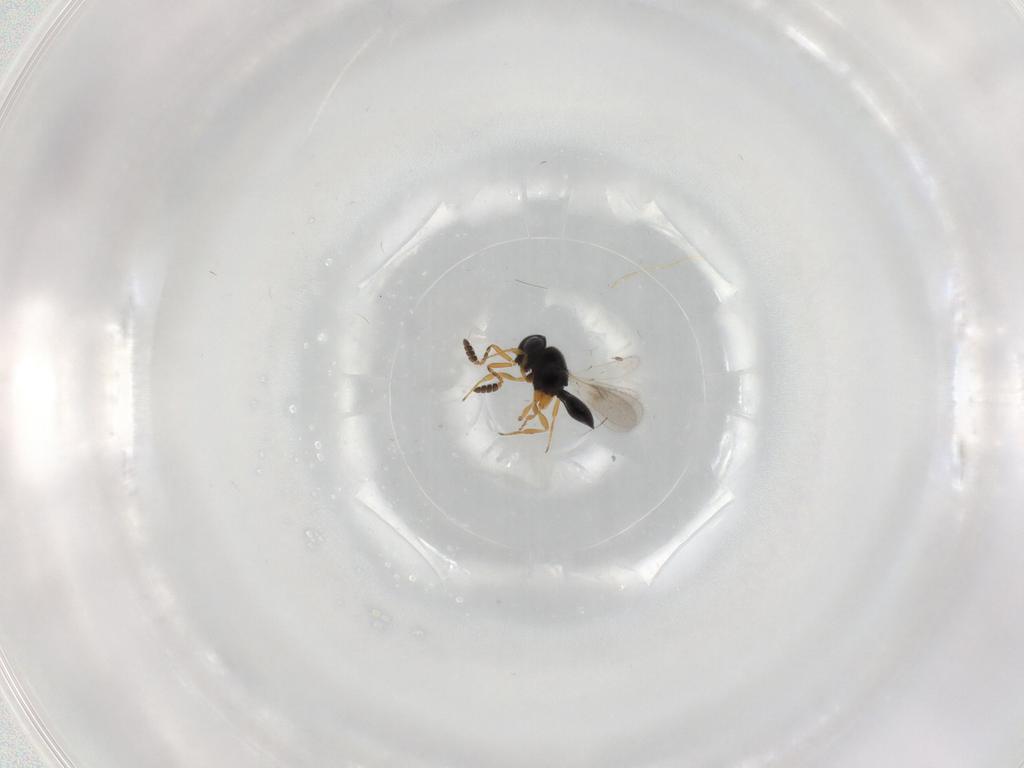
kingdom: Animalia
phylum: Arthropoda
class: Insecta
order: Hymenoptera
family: Scelionidae
